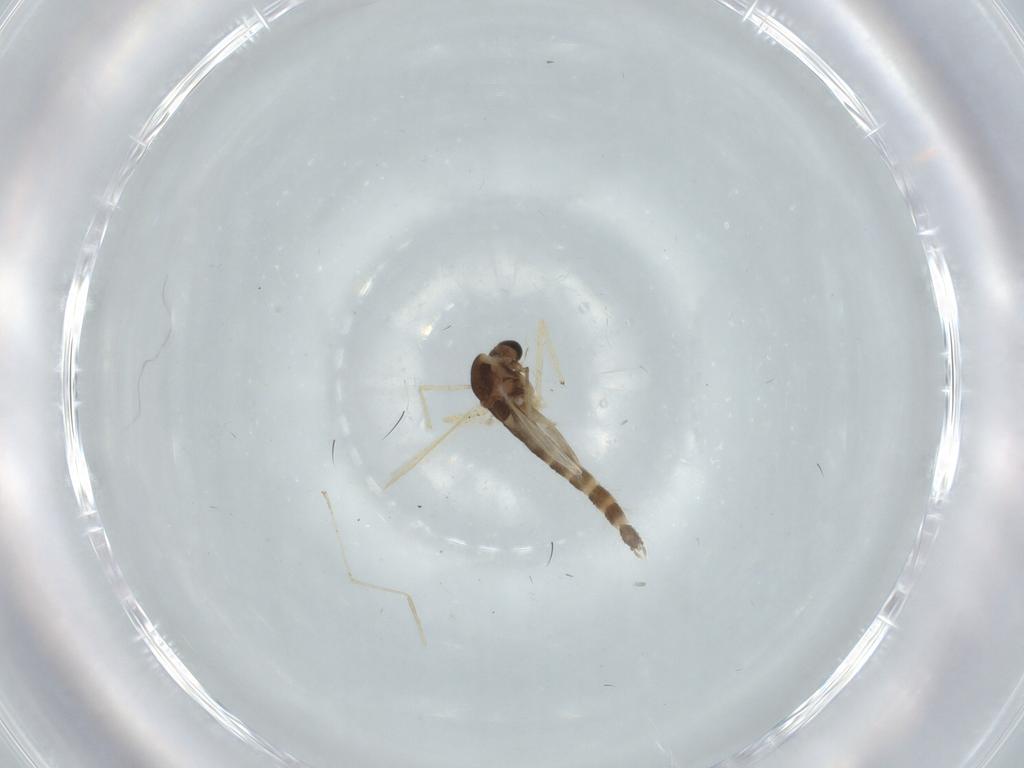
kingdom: Animalia
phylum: Arthropoda
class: Insecta
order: Diptera
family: Chironomidae
